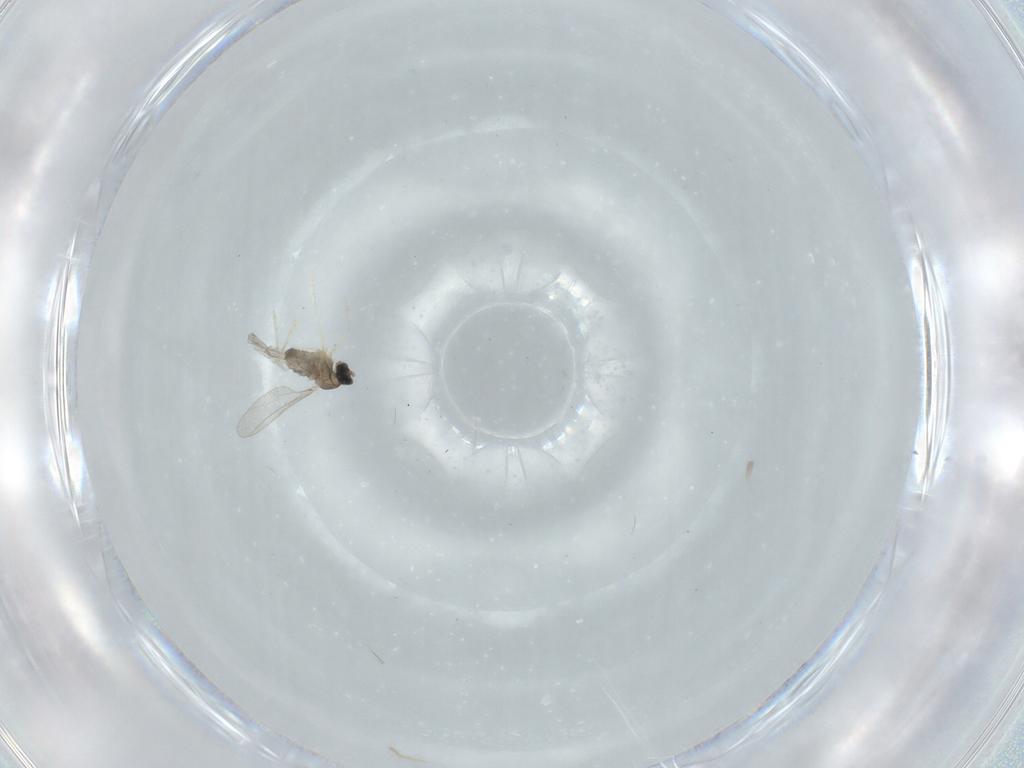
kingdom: Animalia
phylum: Arthropoda
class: Insecta
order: Diptera
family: Cecidomyiidae
